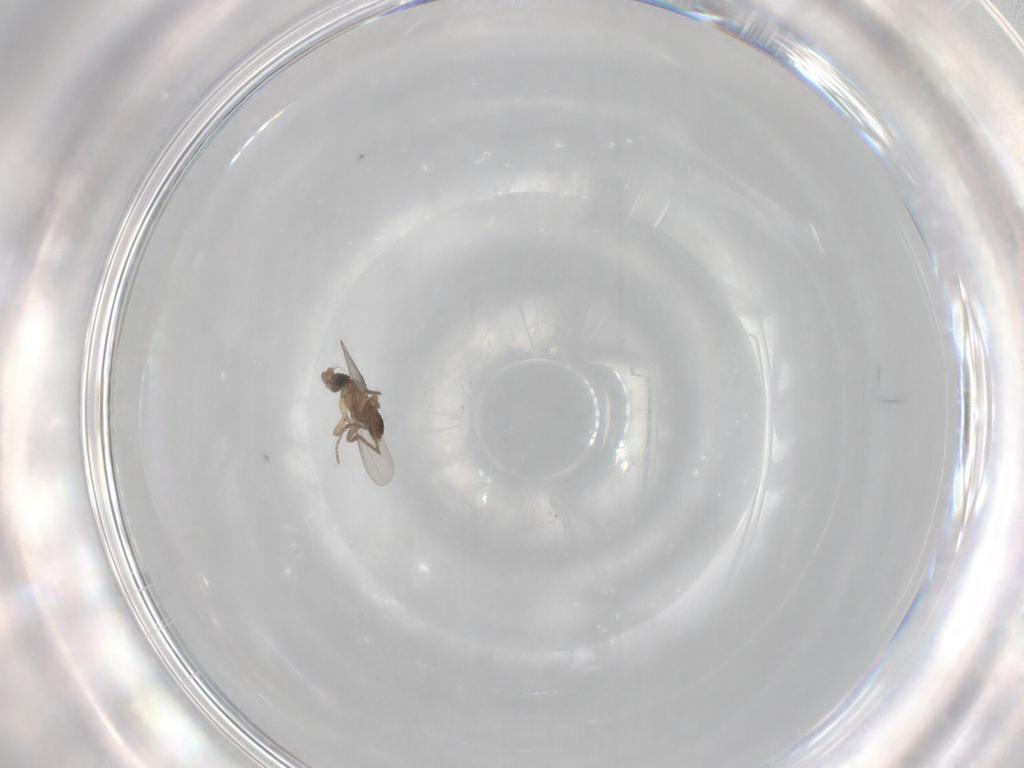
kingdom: Animalia
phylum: Arthropoda
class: Insecta
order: Diptera
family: Phoridae
